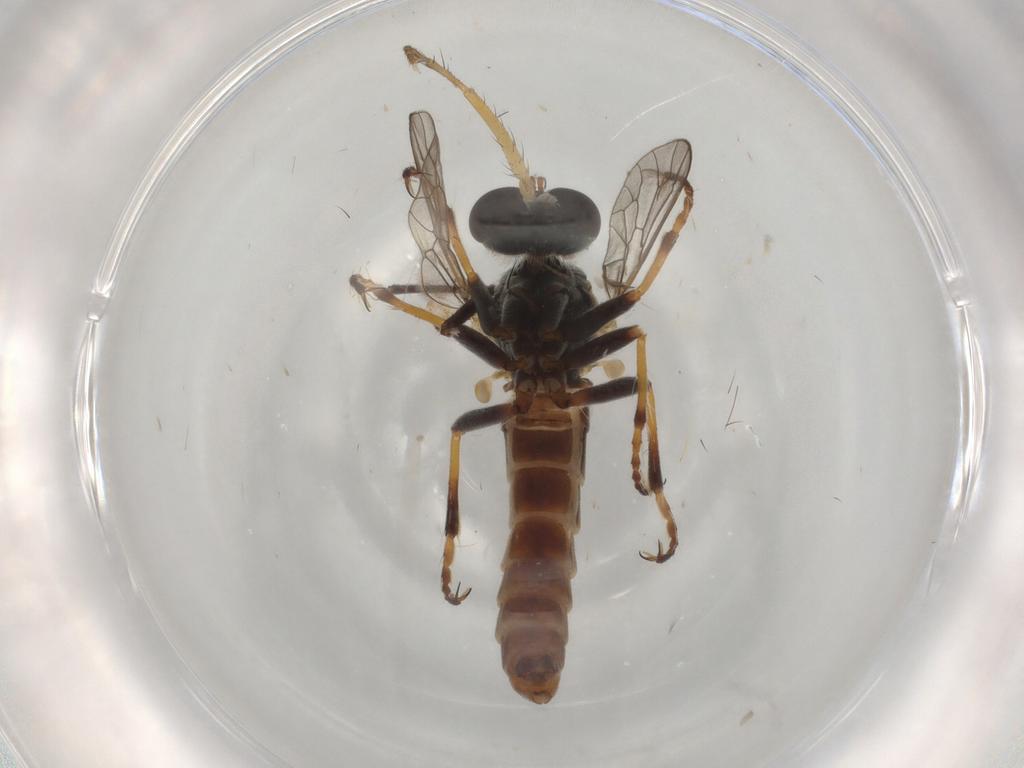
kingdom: Animalia
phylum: Arthropoda
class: Insecta
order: Diptera
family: Asilidae
